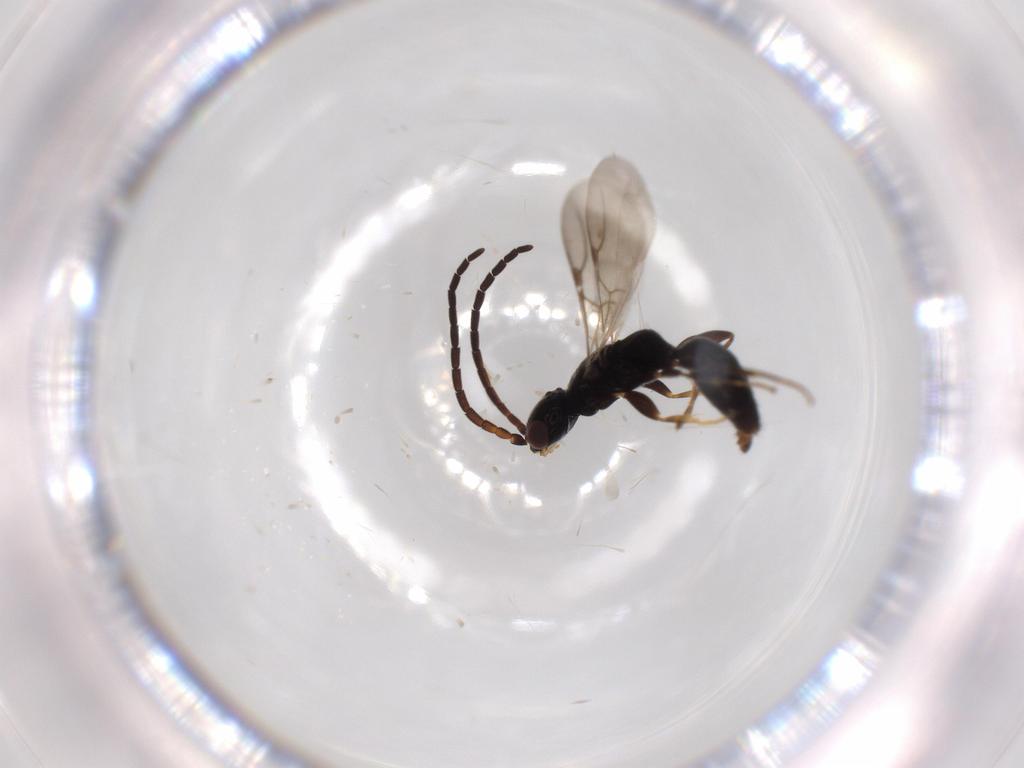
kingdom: Animalia
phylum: Arthropoda
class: Insecta
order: Hymenoptera
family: Bethylidae
